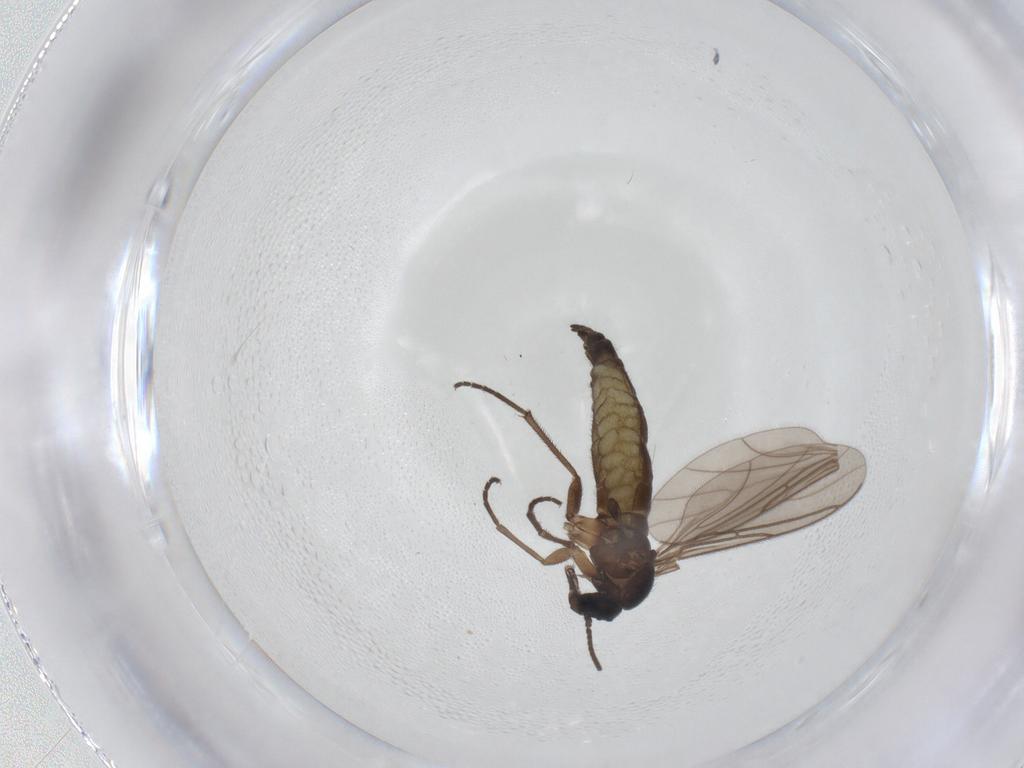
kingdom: Animalia
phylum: Arthropoda
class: Insecta
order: Diptera
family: Sciaridae
